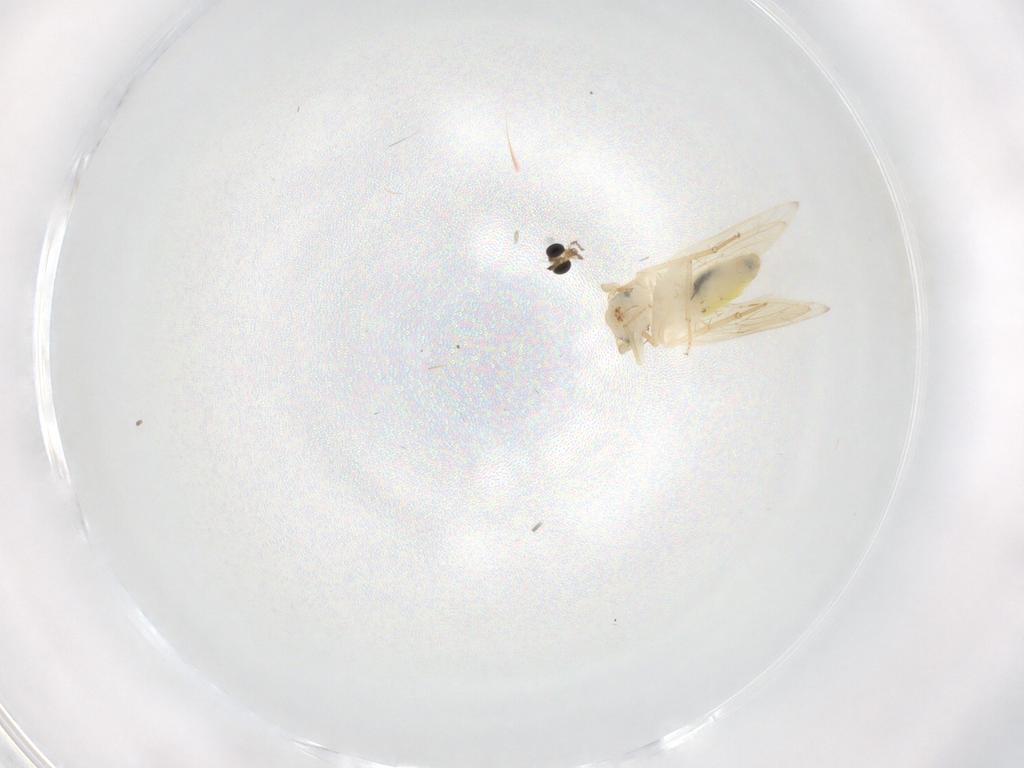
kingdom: Animalia
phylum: Arthropoda
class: Insecta
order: Psocodea
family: Lepidopsocidae
